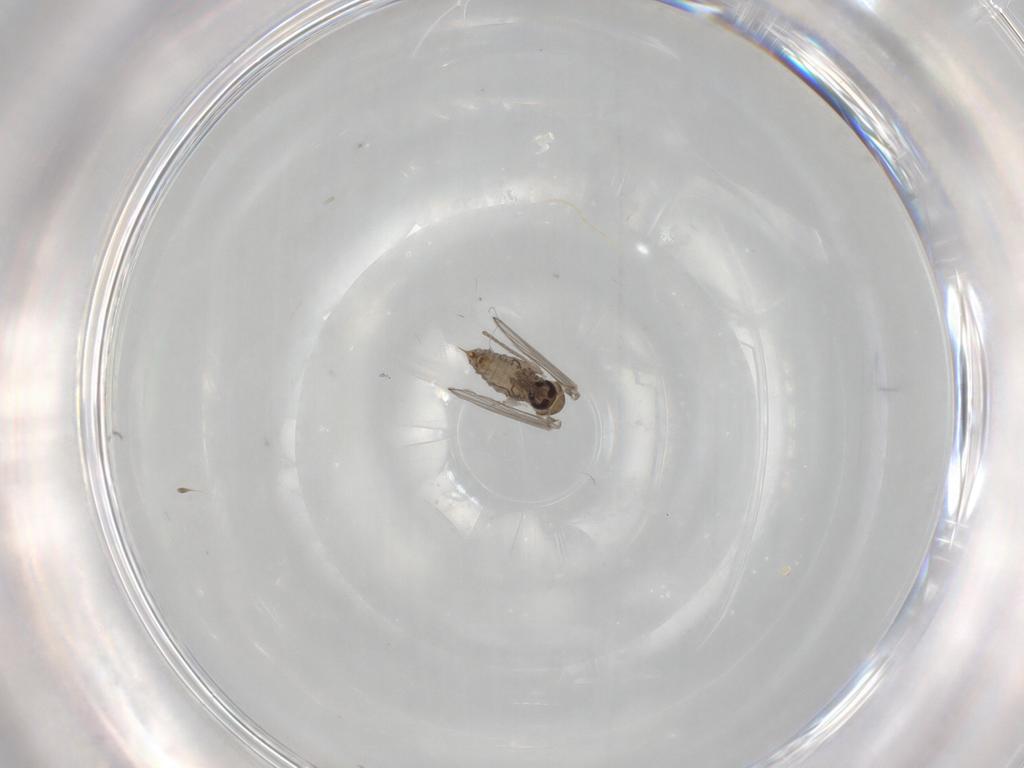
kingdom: Animalia
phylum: Arthropoda
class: Insecta
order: Diptera
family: Psychodidae
